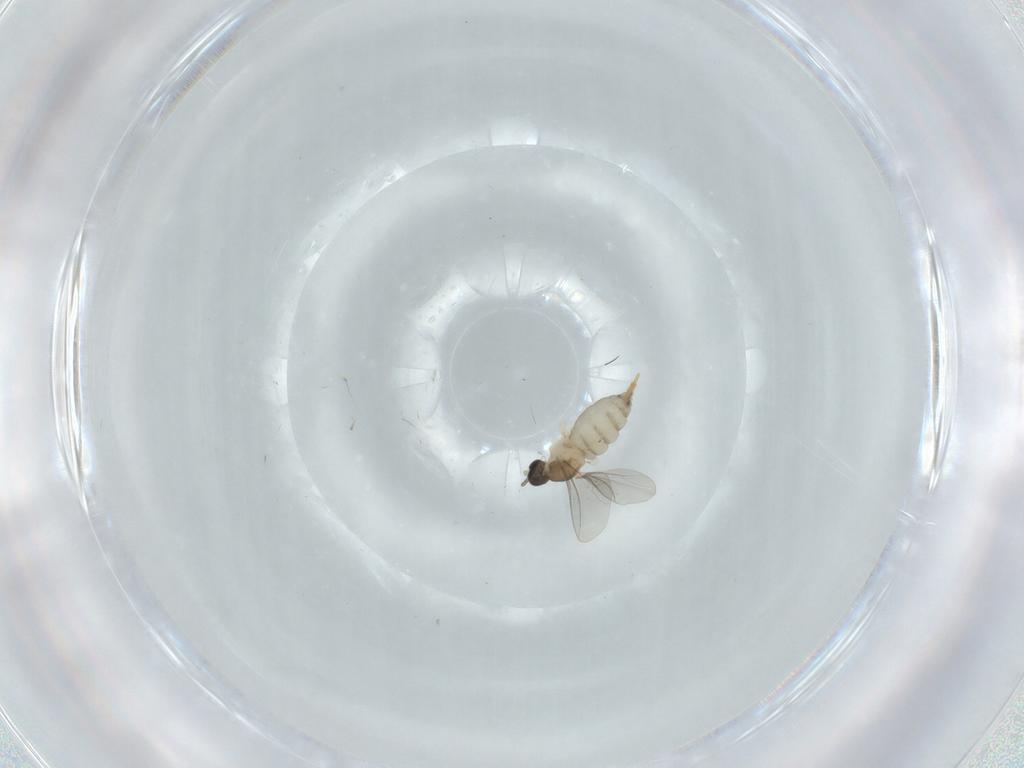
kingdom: Animalia
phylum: Arthropoda
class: Insecta
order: Diptera
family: Cecidomyiidae
